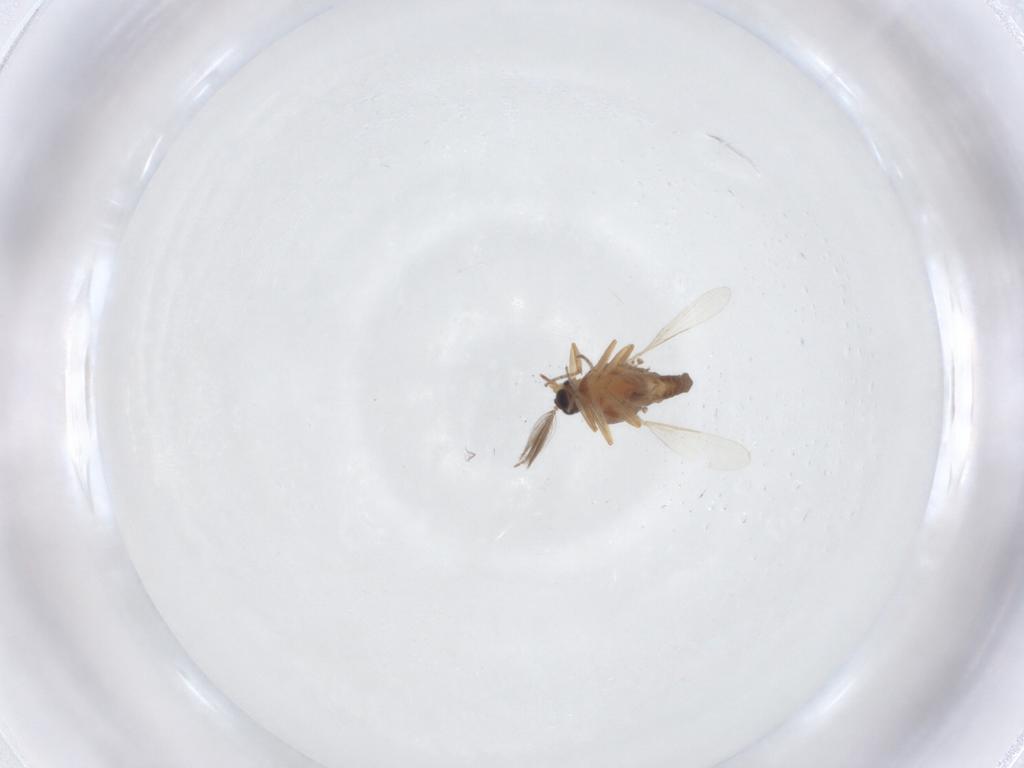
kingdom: Animalia
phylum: Arthropoda
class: Insecta
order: Diptera
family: Ceratopogonidae
